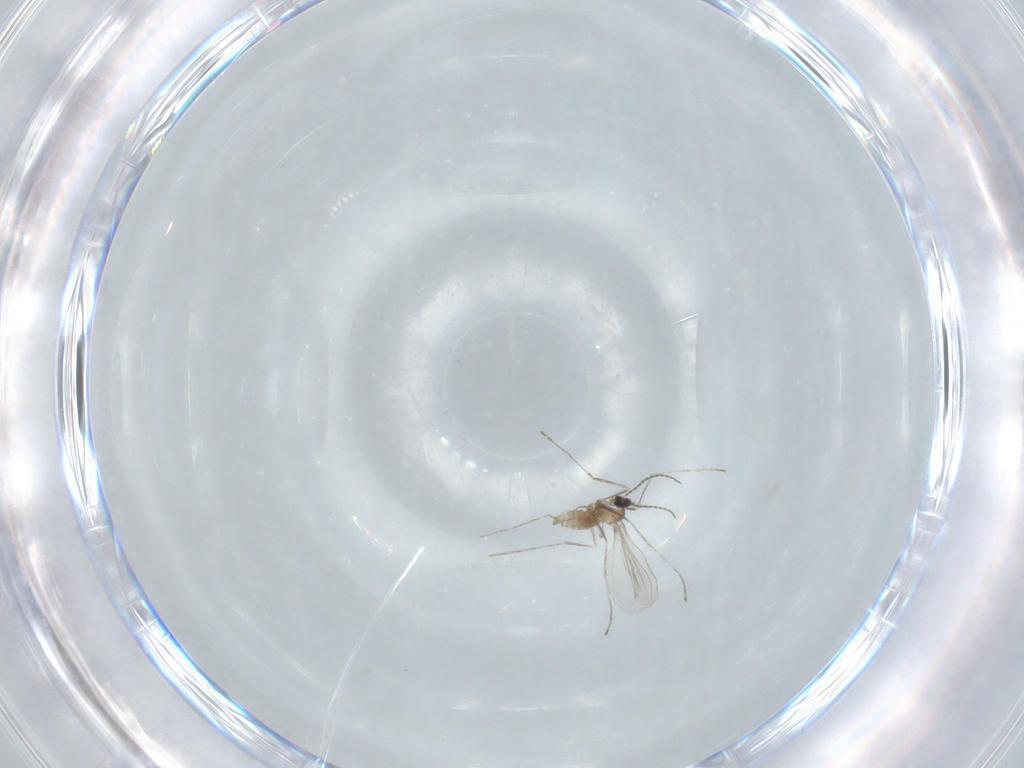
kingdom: Animalia
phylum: Arthropoda
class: Insecta
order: Diptera
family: Cecidomyiidae
